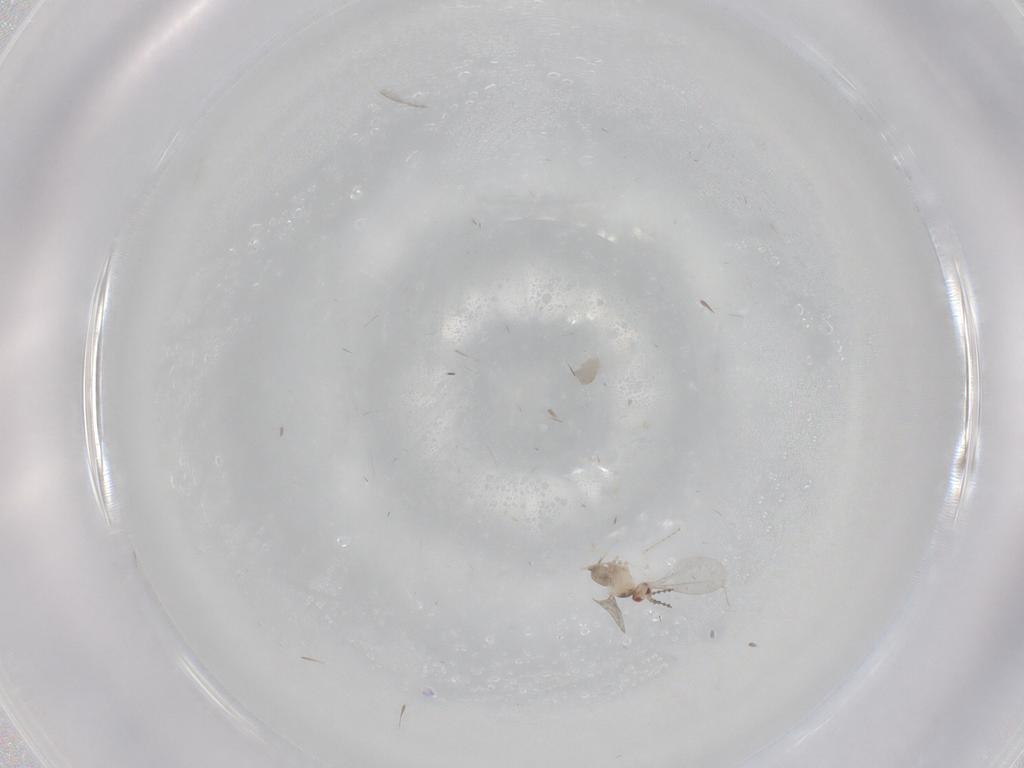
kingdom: Animalia
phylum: Arthropoda
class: Insecta
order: Diptera
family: Cecidomyiidae
